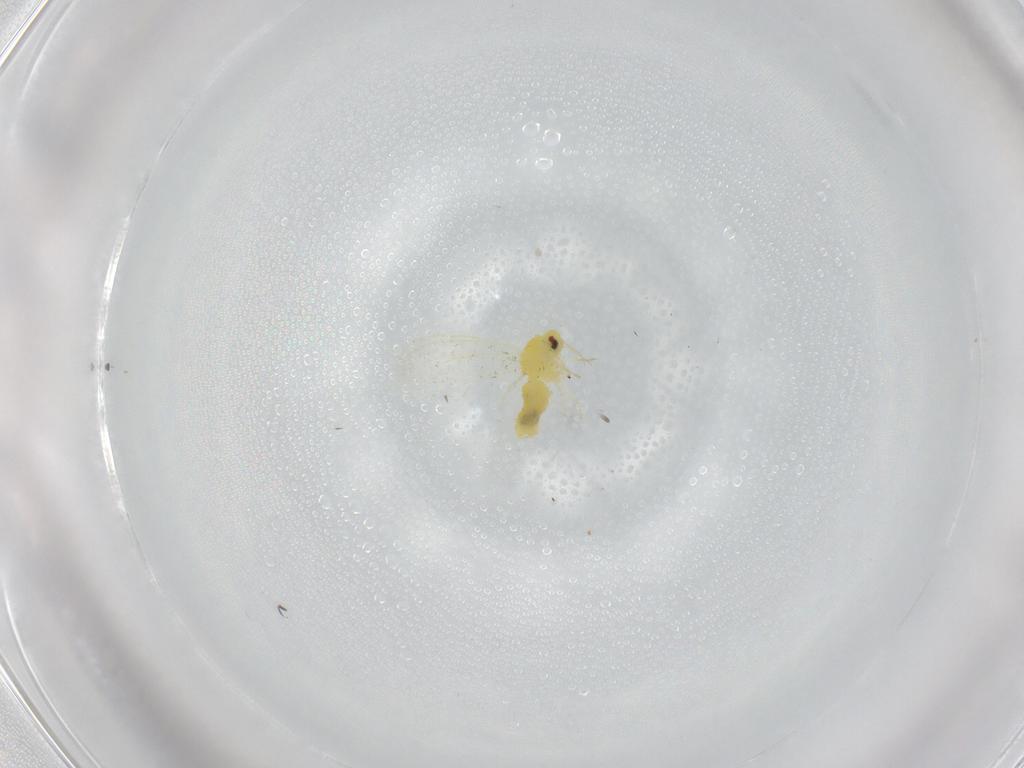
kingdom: Animalia
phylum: Arthropoda
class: Insecta
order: Hemiptera
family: Aleyrodidae
